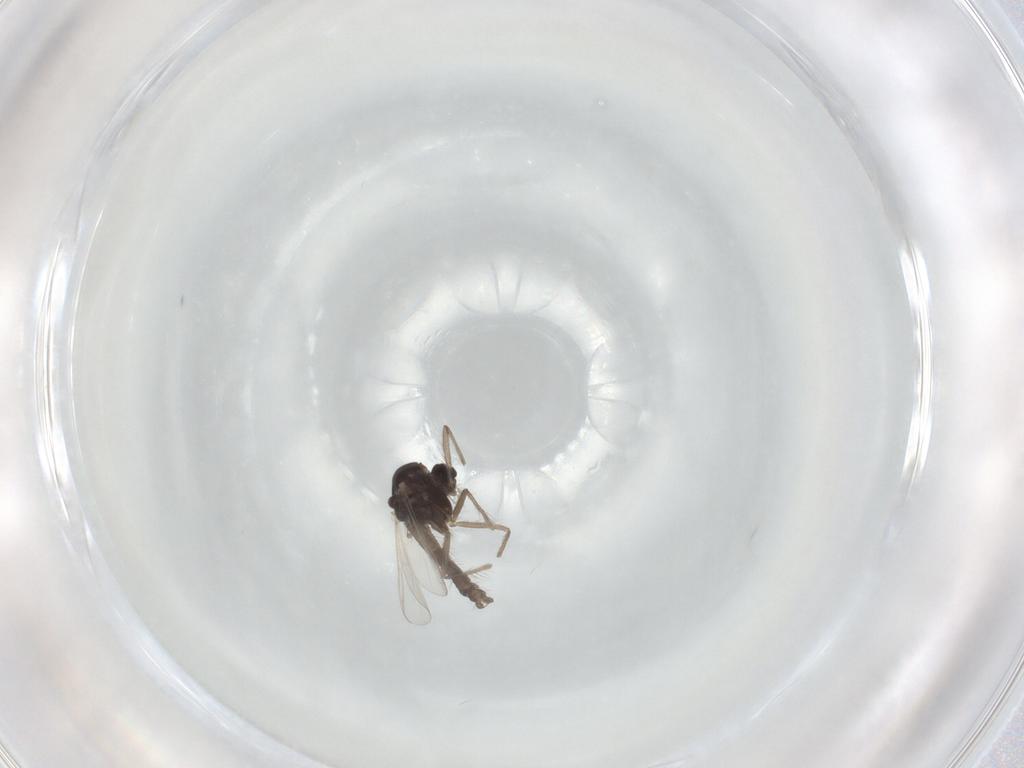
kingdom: Animalia
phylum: Arthropoda
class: Insecta
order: Diptera
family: Chironomidae
